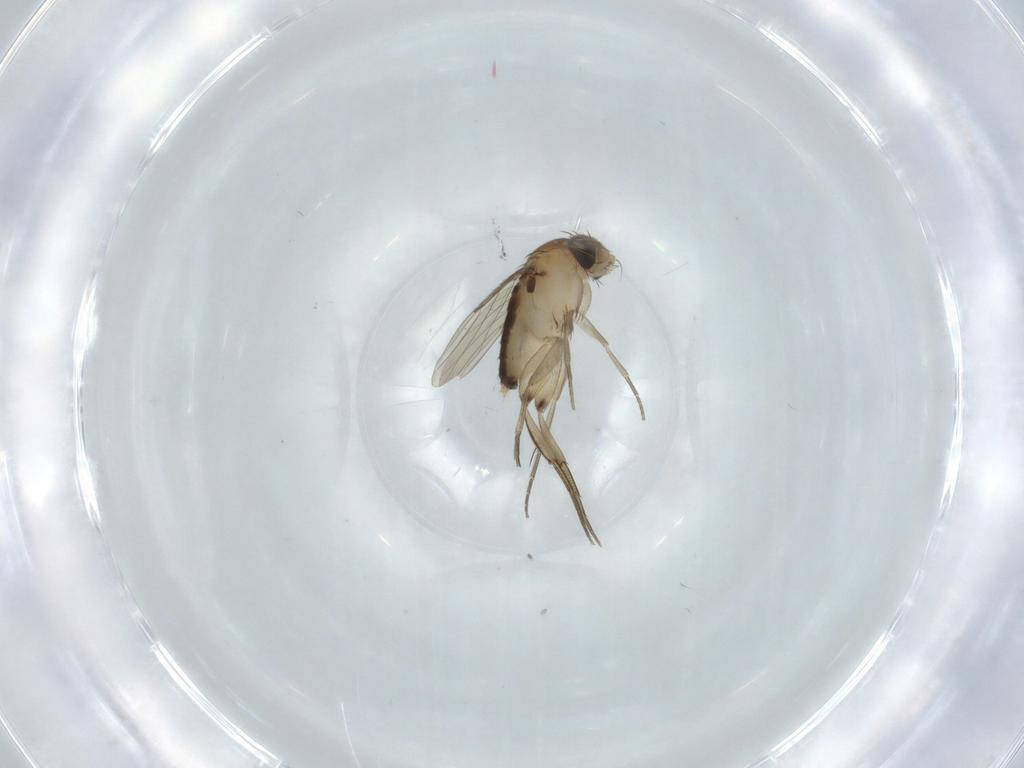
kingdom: Animalia
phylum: Arthropoda
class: Insecta
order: Diptera
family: Phoridae
